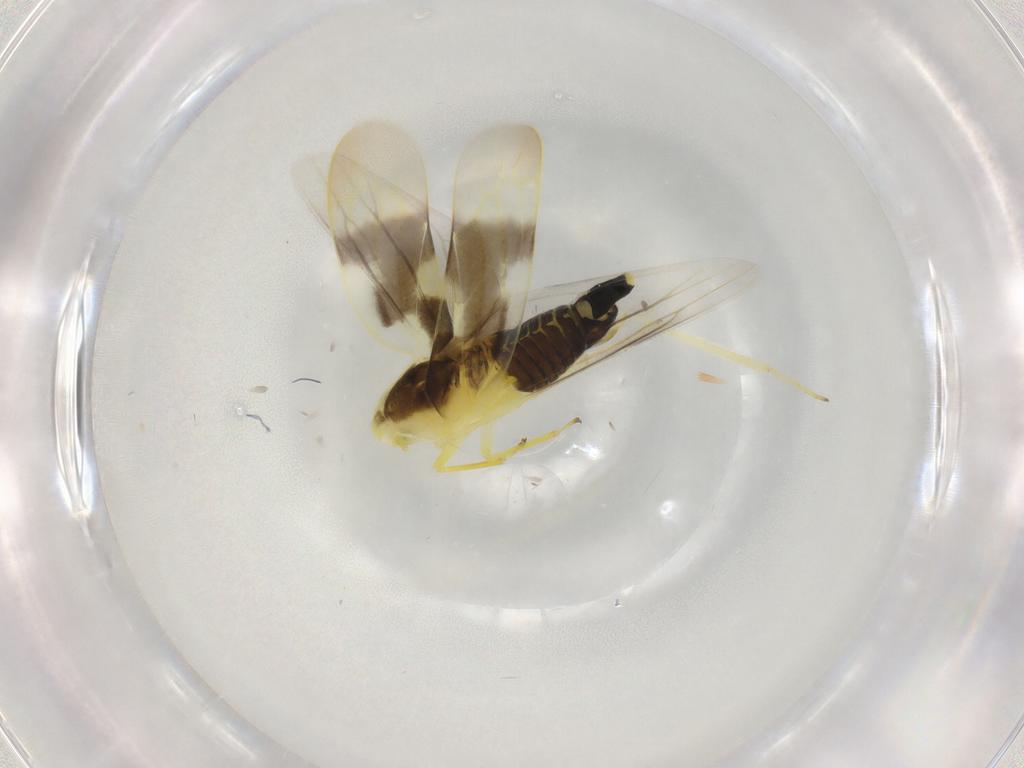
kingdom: Animalia
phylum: Arthropoda
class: Insecta
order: Hemiptera
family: Cicadellidae
